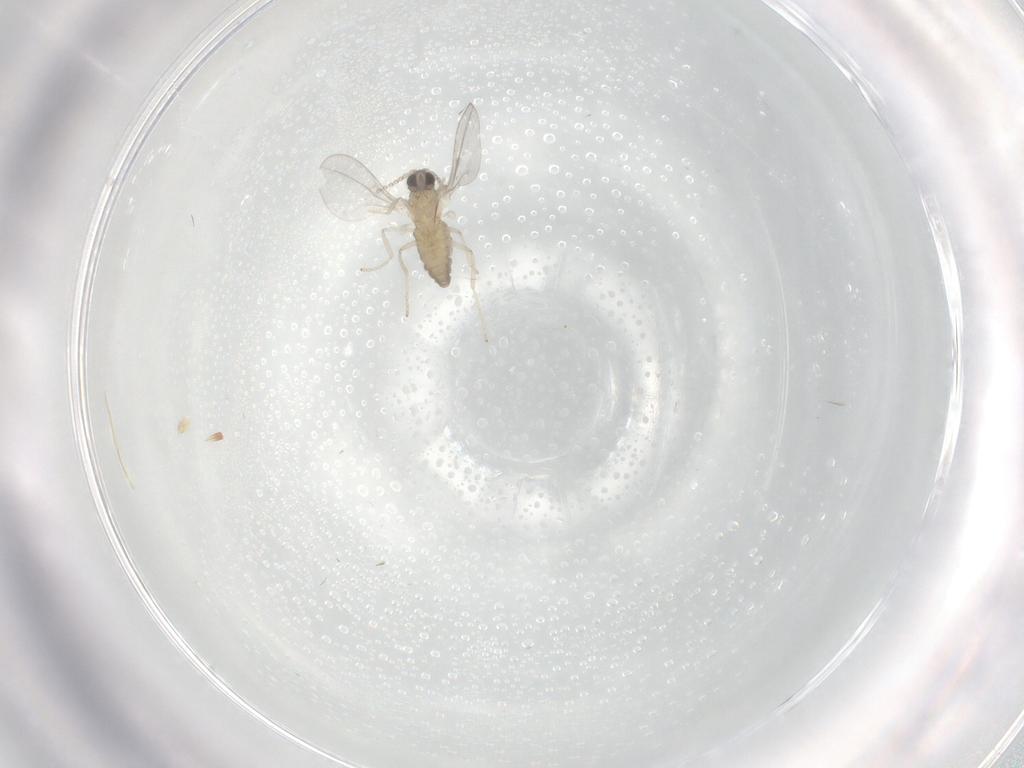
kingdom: Animalia
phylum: Arthropoda
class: Insecta
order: Diptera
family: Cecidomyiidae
